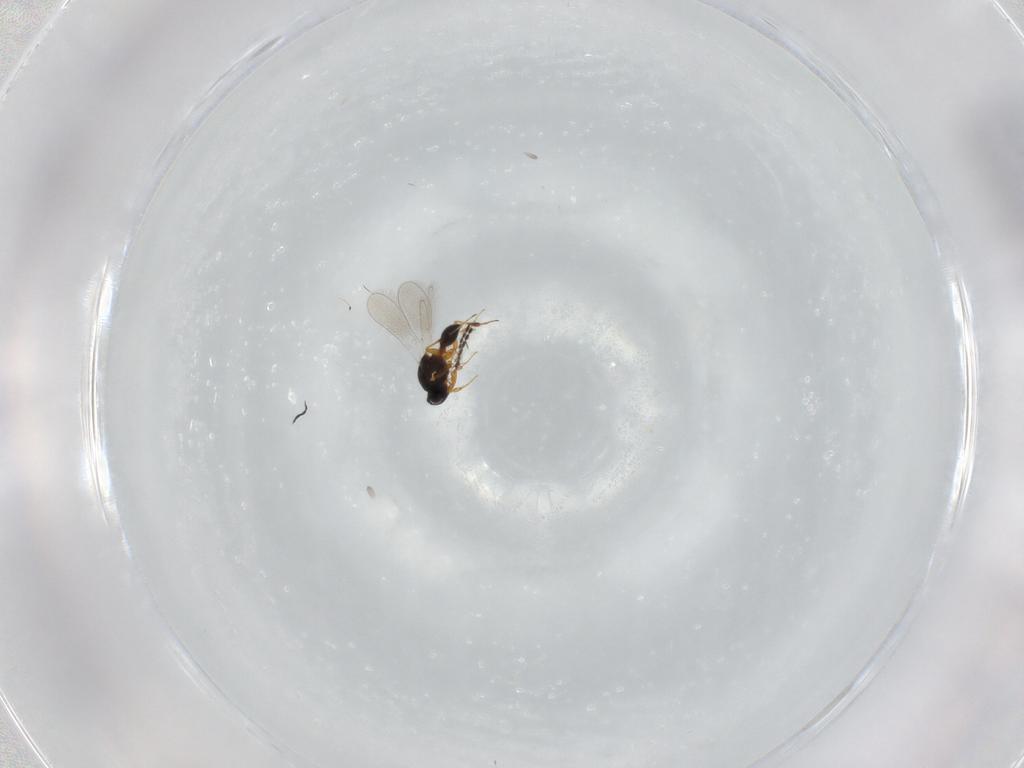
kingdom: Animalia
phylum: Arthropoda
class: Insecta
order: Hymenoptera
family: Platygastridae
